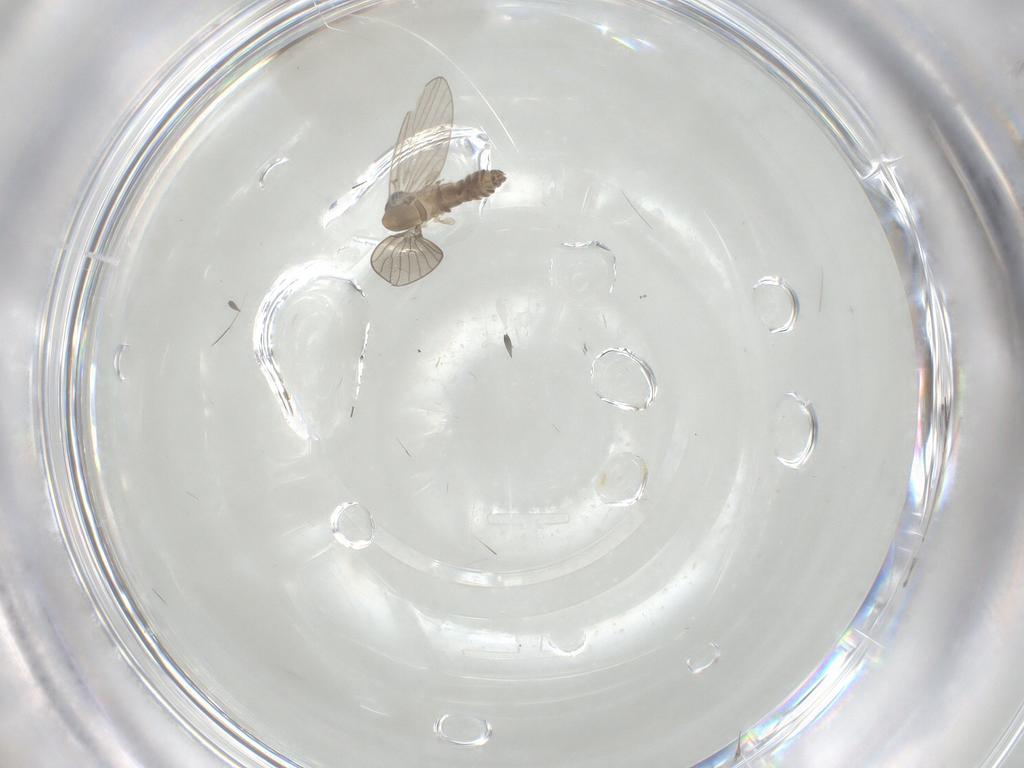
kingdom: Animalia
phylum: Arthropoda
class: Insecta
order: Diptera
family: Psychodidae
